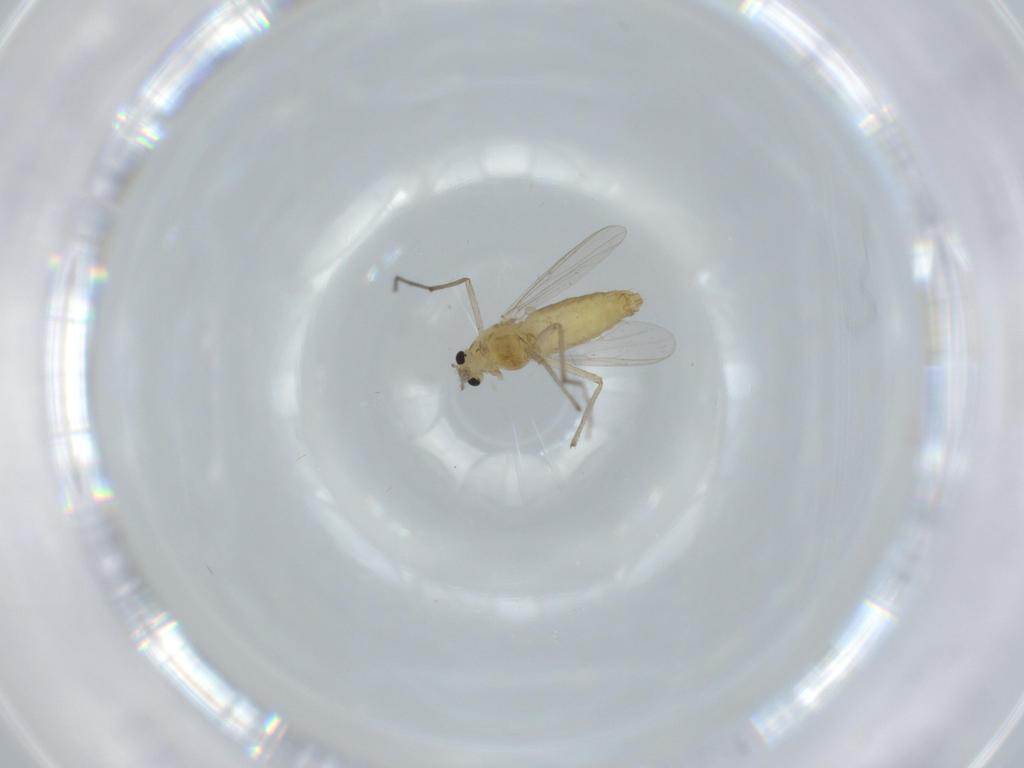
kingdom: Animalia
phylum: Arthropoda
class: Insecta
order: Diptera
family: Chironomidae
